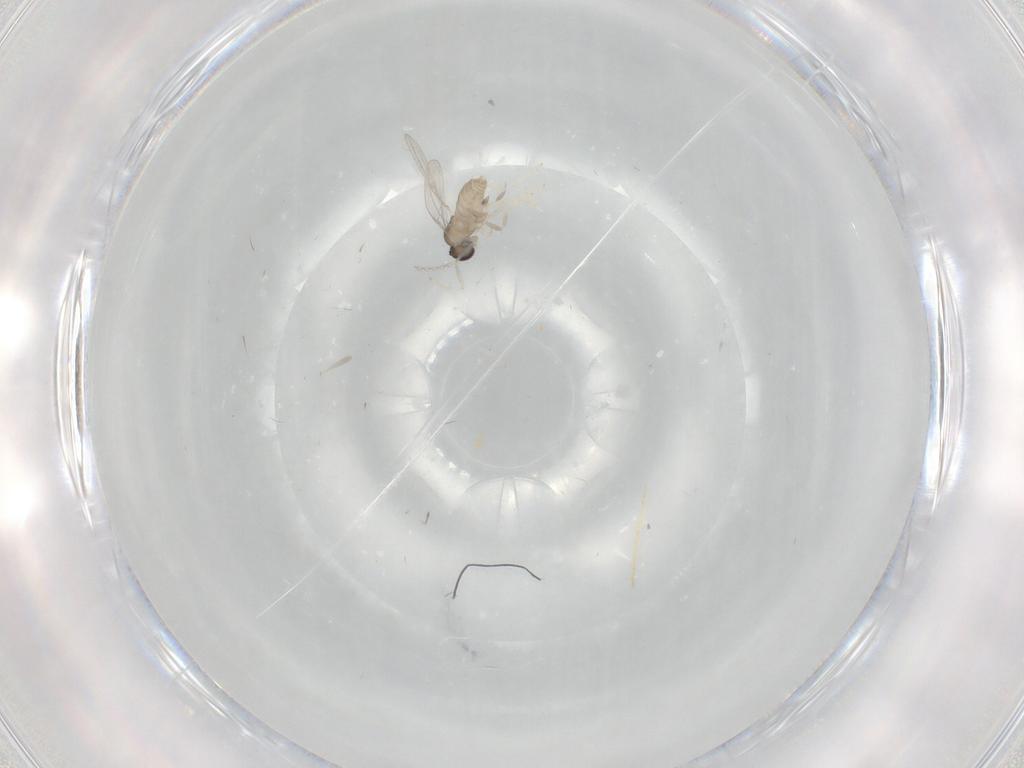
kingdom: Animalia
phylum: Arthropoda
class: Insecta
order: Diptera
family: Cecidomyiidae
